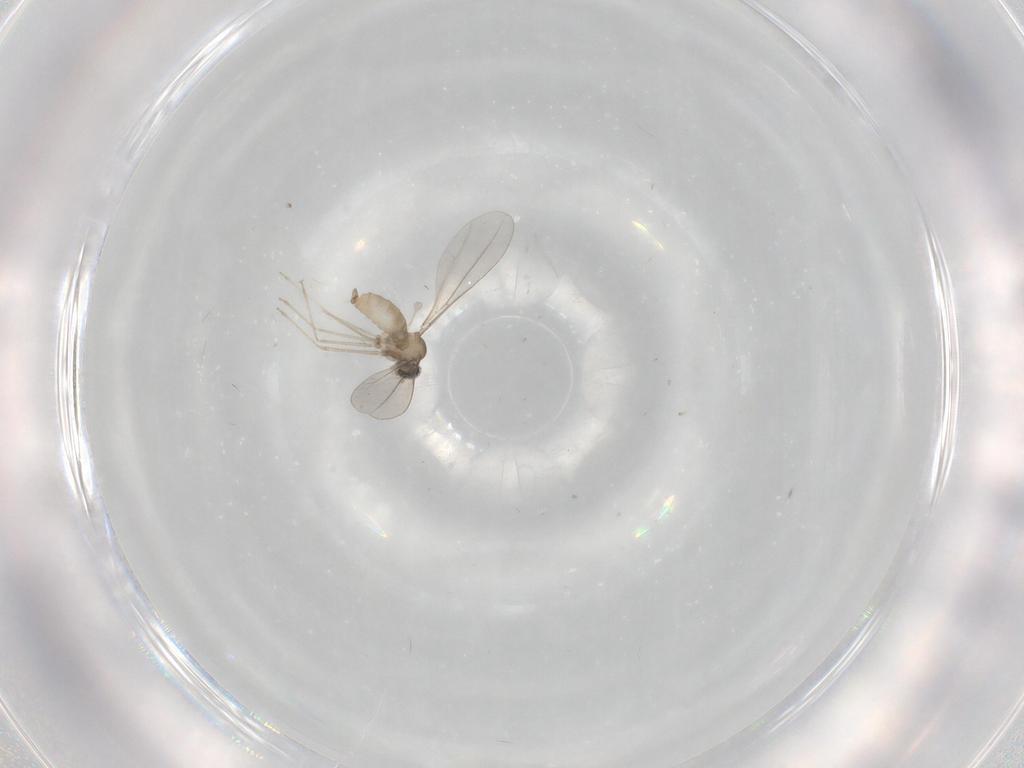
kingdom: Animalia
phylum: Arthropoda
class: Insecta
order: Diptera
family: Cecidomyiidae
